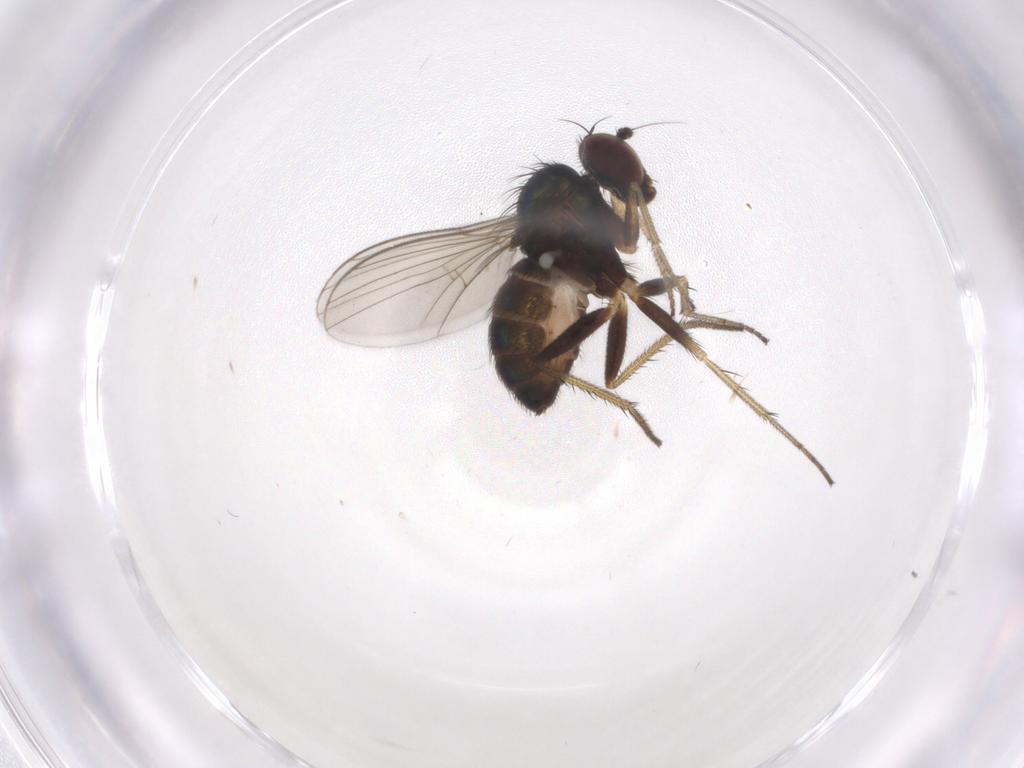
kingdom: Animalia
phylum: Arthropoda
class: Insecta
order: Diptera
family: Dolichopodidae
